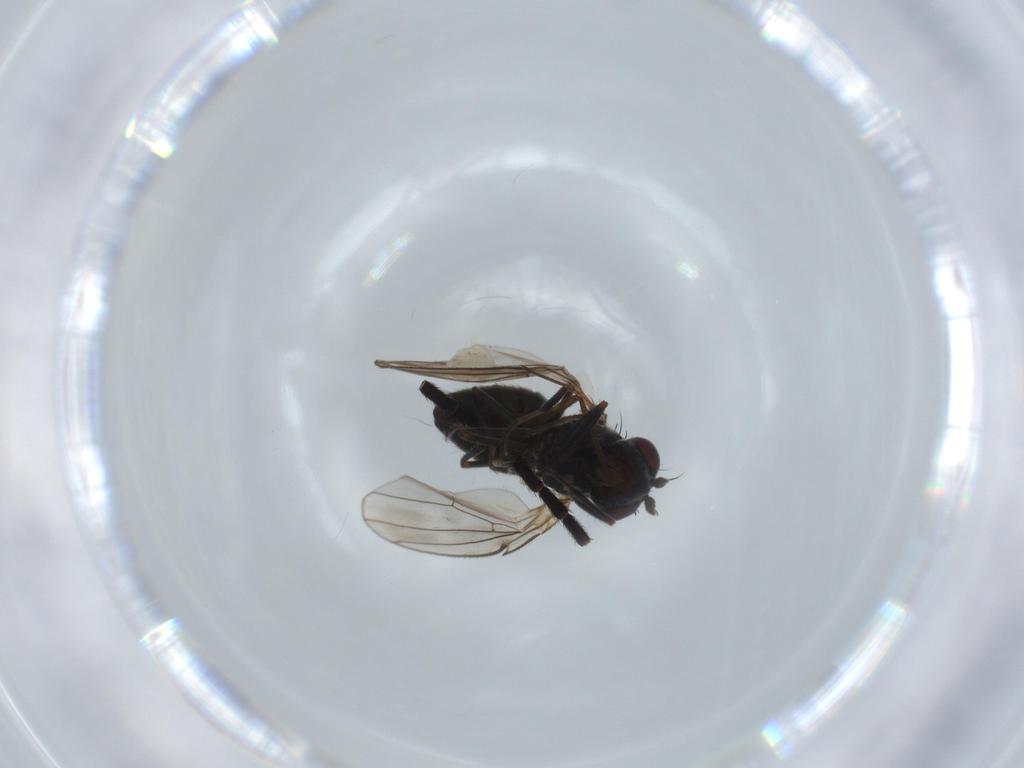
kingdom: Animalia
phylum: Arthropoda
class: Insecta
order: Diptera
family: Ephydridae
